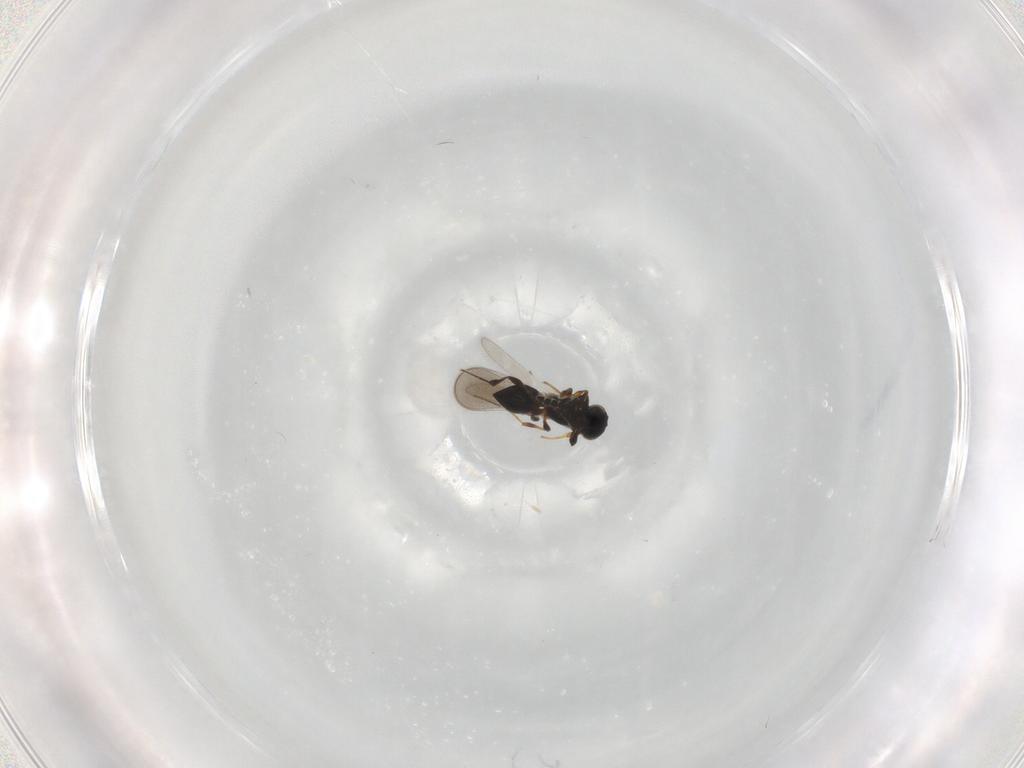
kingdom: Animalia
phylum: Arthropoda
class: Insecta
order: Hymenoptera
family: Platygastridae
